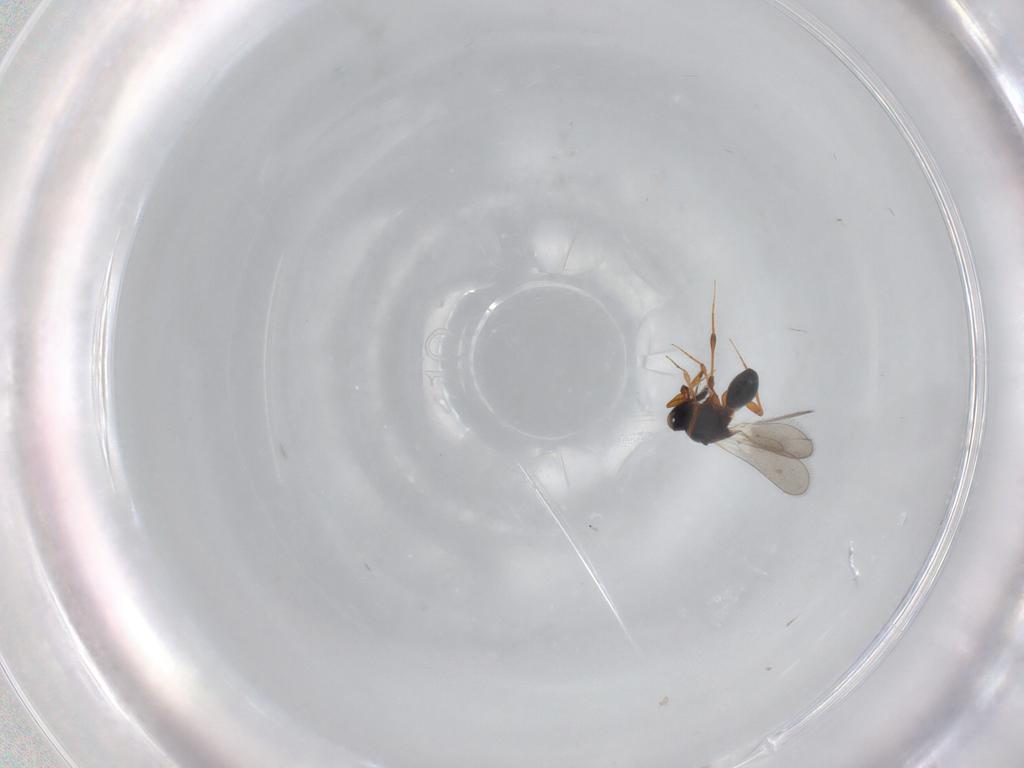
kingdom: Animalia
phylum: Arthropoda
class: Insecta
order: Hymenoptera
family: Platygastridae
